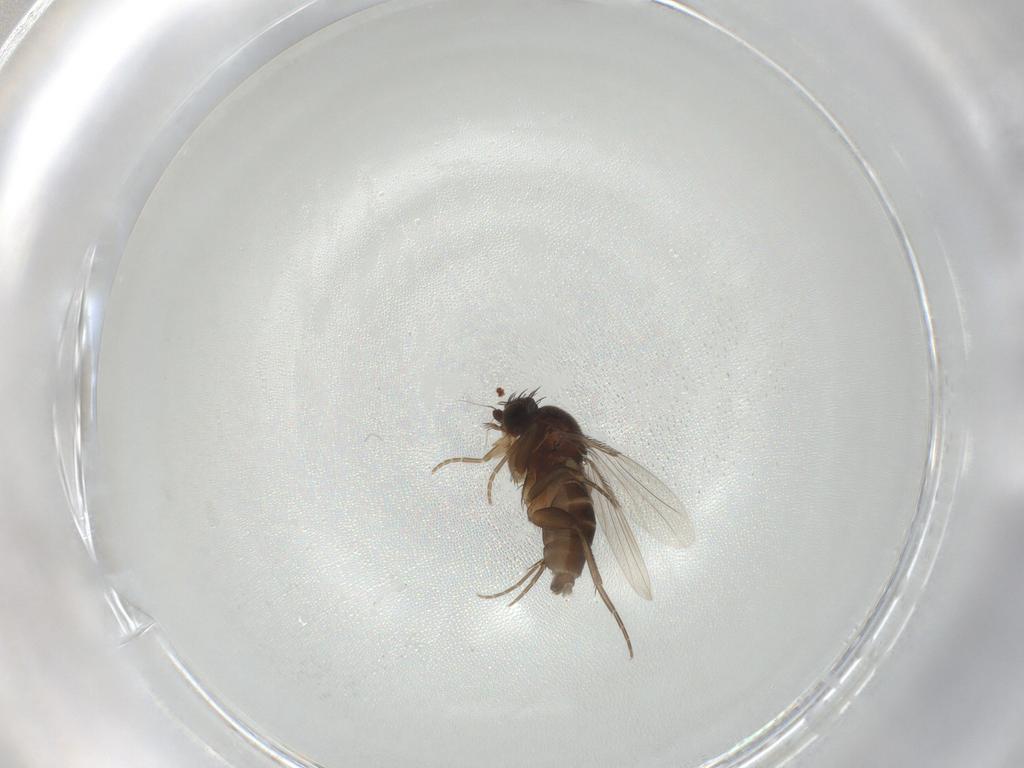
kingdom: Animalia
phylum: Arthropoda
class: Insecta
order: Diptera
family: Phoridae
